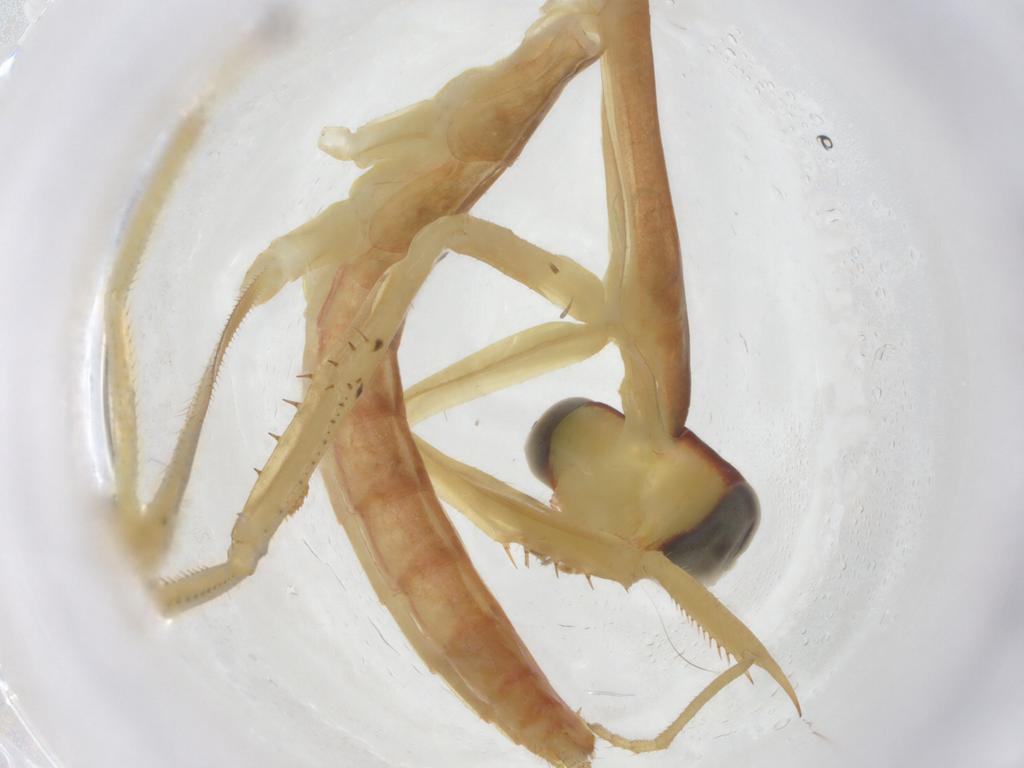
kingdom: Animalia
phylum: Arthropoda
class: Insecta
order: Mantodea
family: Mantidae
